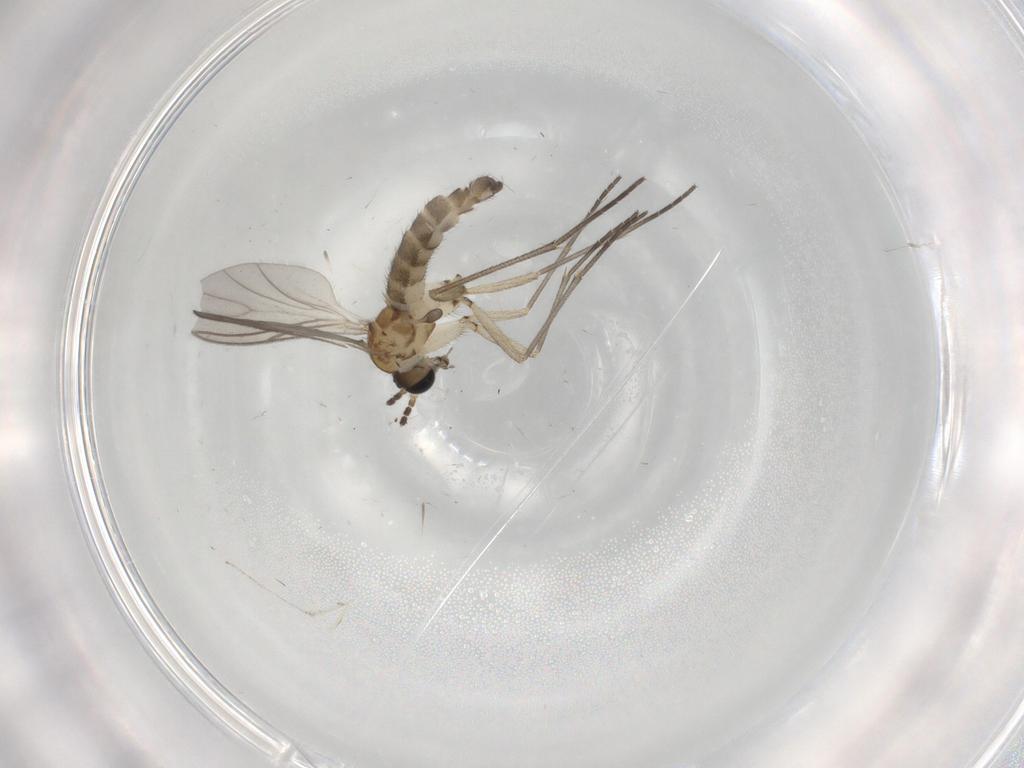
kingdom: Animalia
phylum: Arthropoda
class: Insecta
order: Diptera
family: Sciaridae
